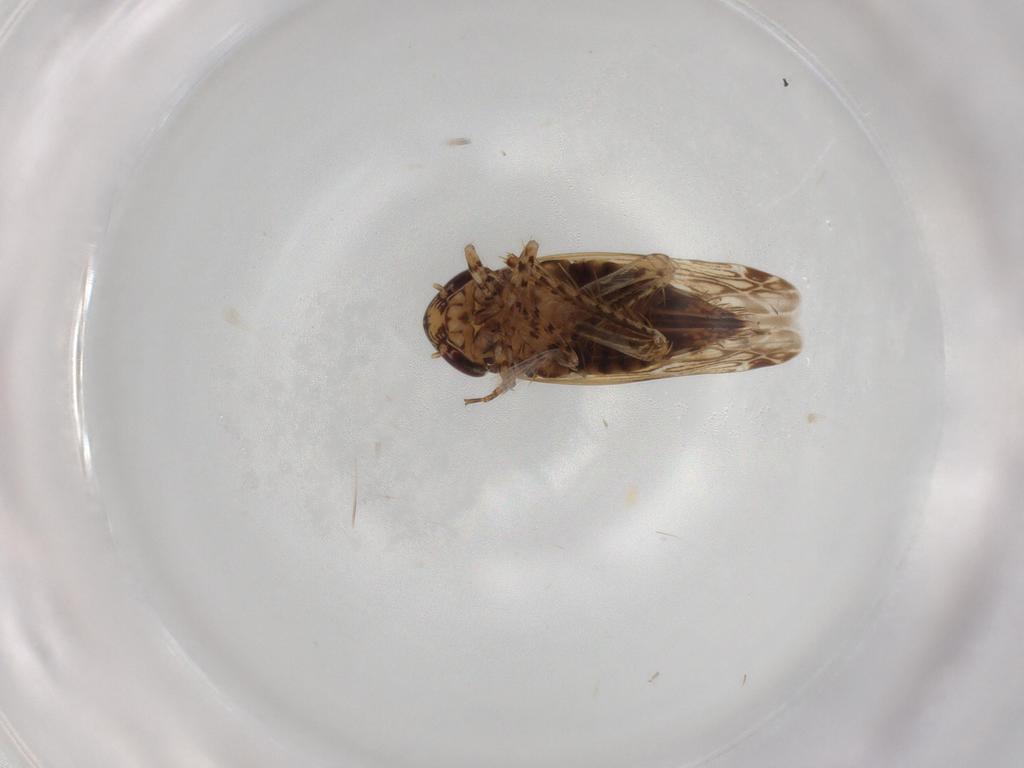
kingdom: Animalia
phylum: Arthropoda
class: Insecta
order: Hemiptera
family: Cicadellidae
